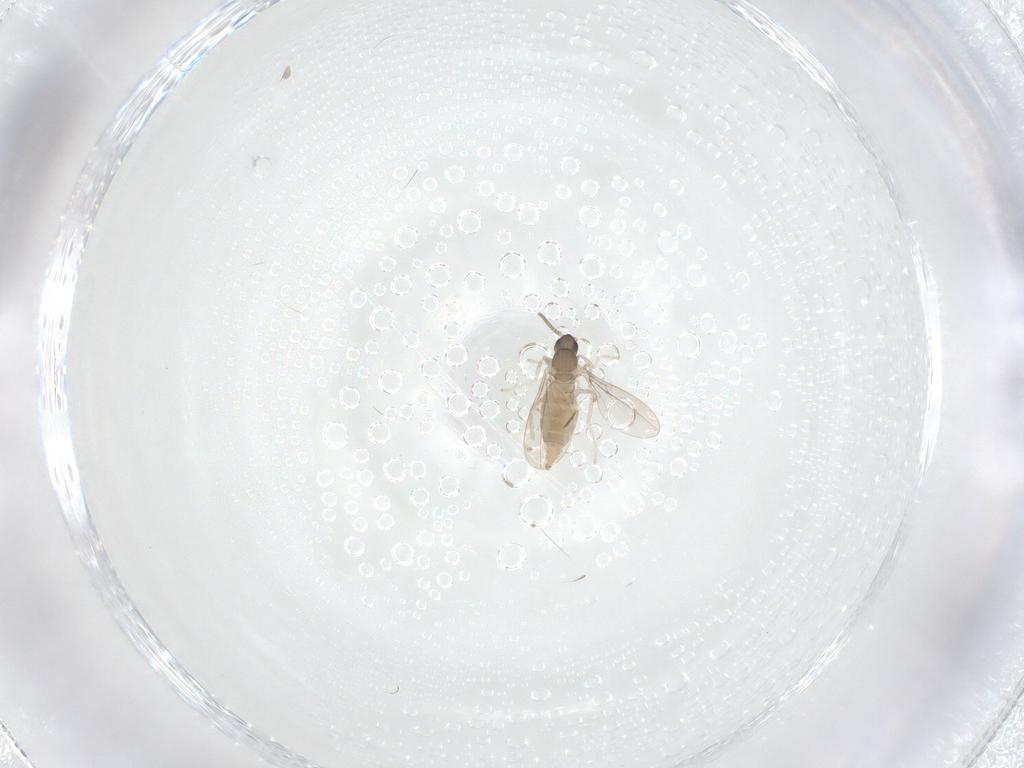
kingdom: Animalia
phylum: Arthropoda
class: Insecta
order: Diptera
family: Cecidomyiidae
